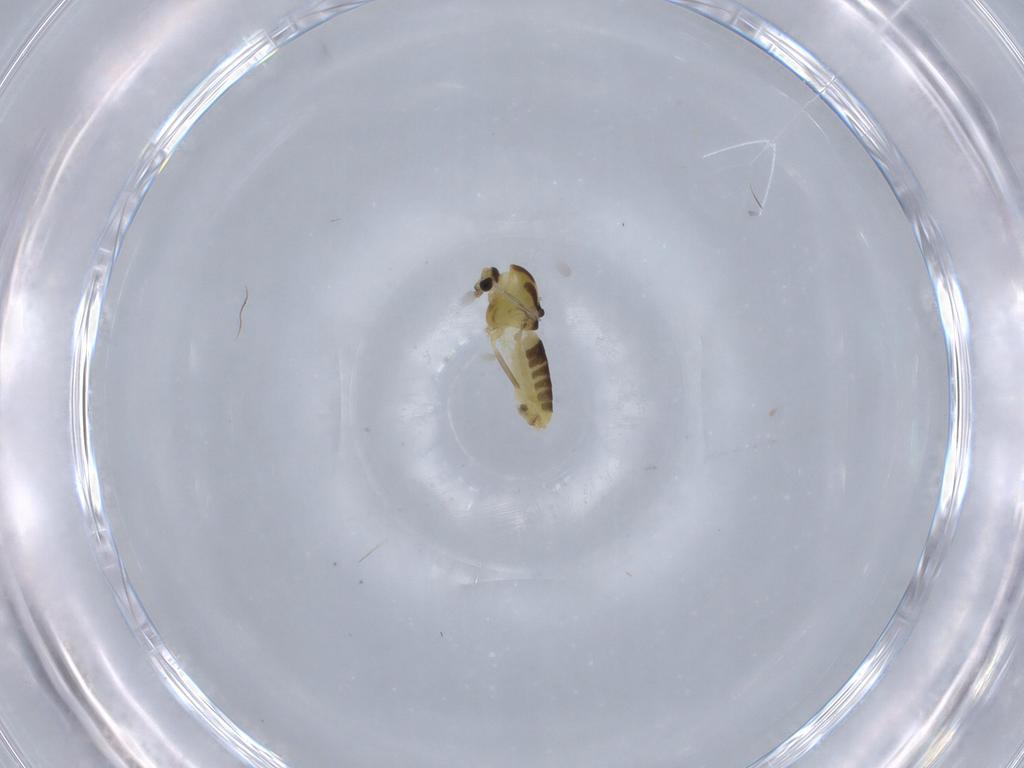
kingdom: Animalia
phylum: Arthropoda
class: Insecta
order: Diptera
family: Chironomidae
